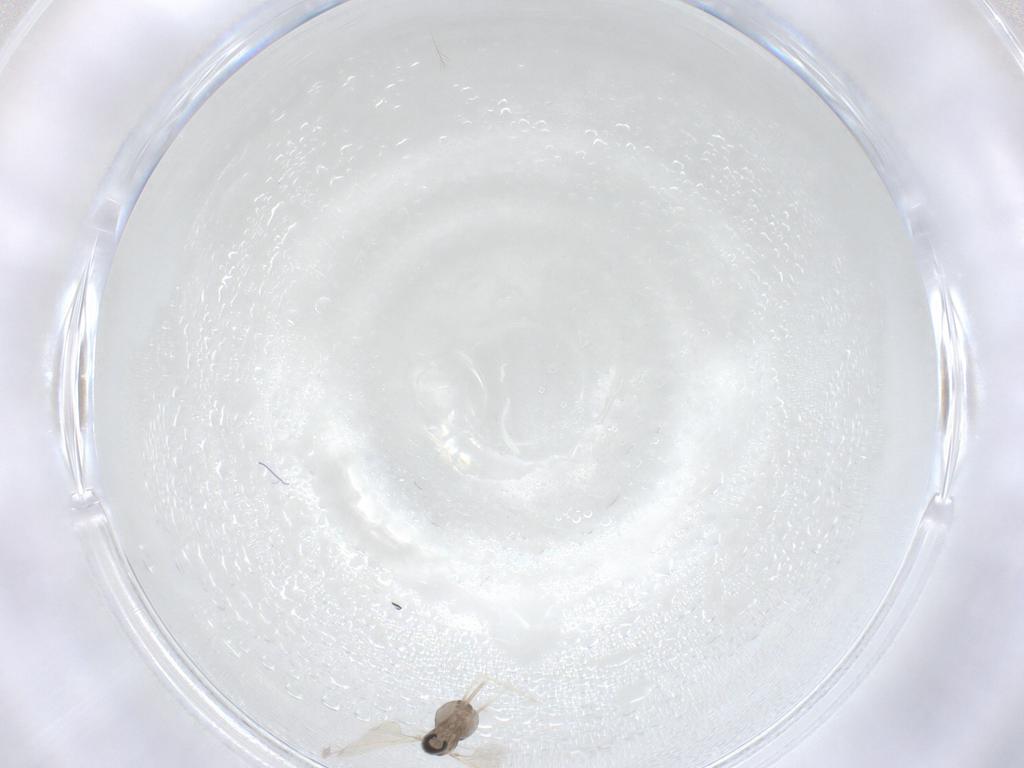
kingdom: Animalia
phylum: Arthropoda
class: Insecta
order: Diptera
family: Cecidomyiidae
